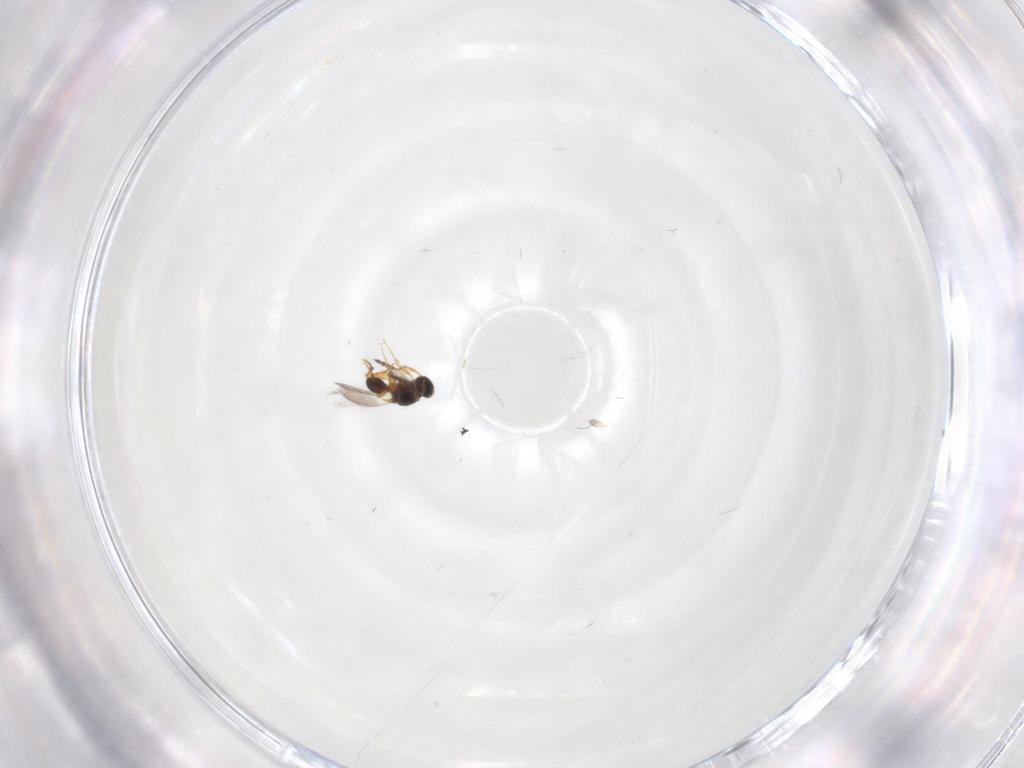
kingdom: Animalia
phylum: Arthropoda
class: Insecta
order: Hymenoptera
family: Platygastridae
